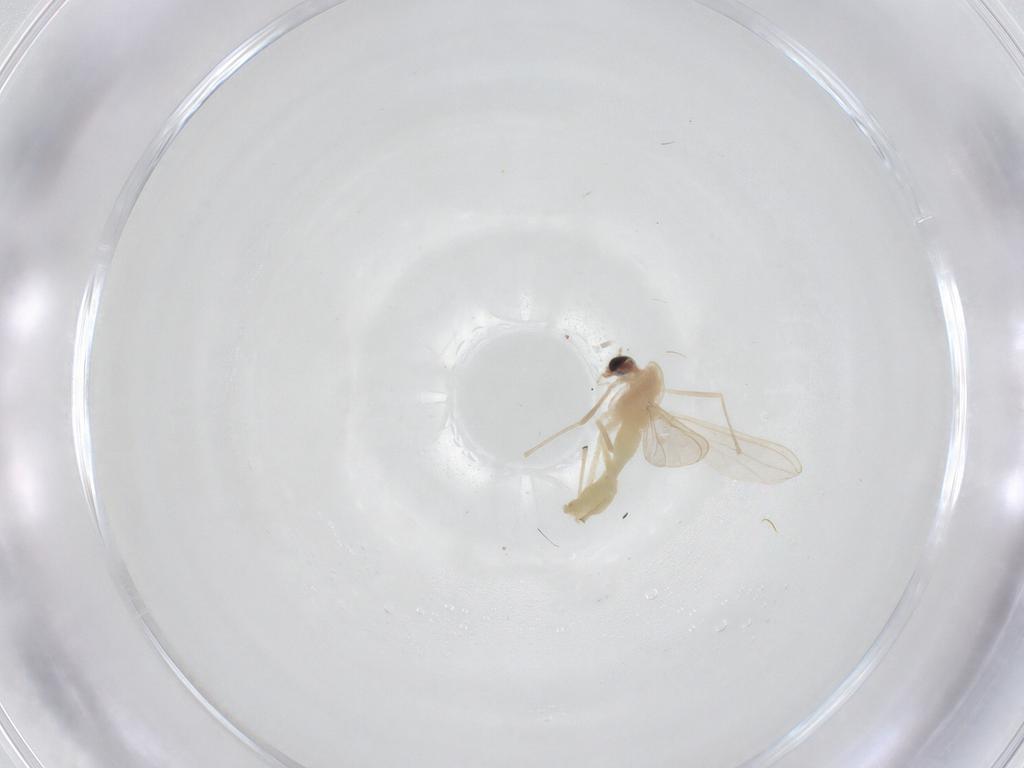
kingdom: Animalia
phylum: Arthropoda
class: Insecta
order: Diptera
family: Chironomidae
